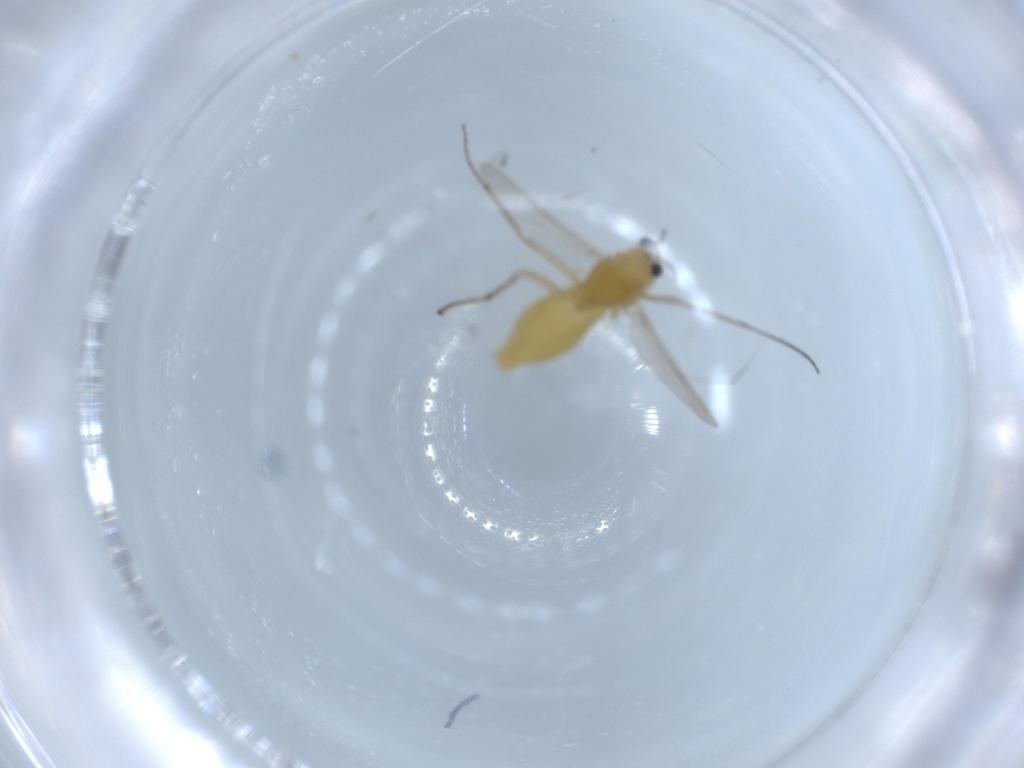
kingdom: Animalia
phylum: Arthropoda
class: Insecta
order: Diptera
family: Chironomidae
